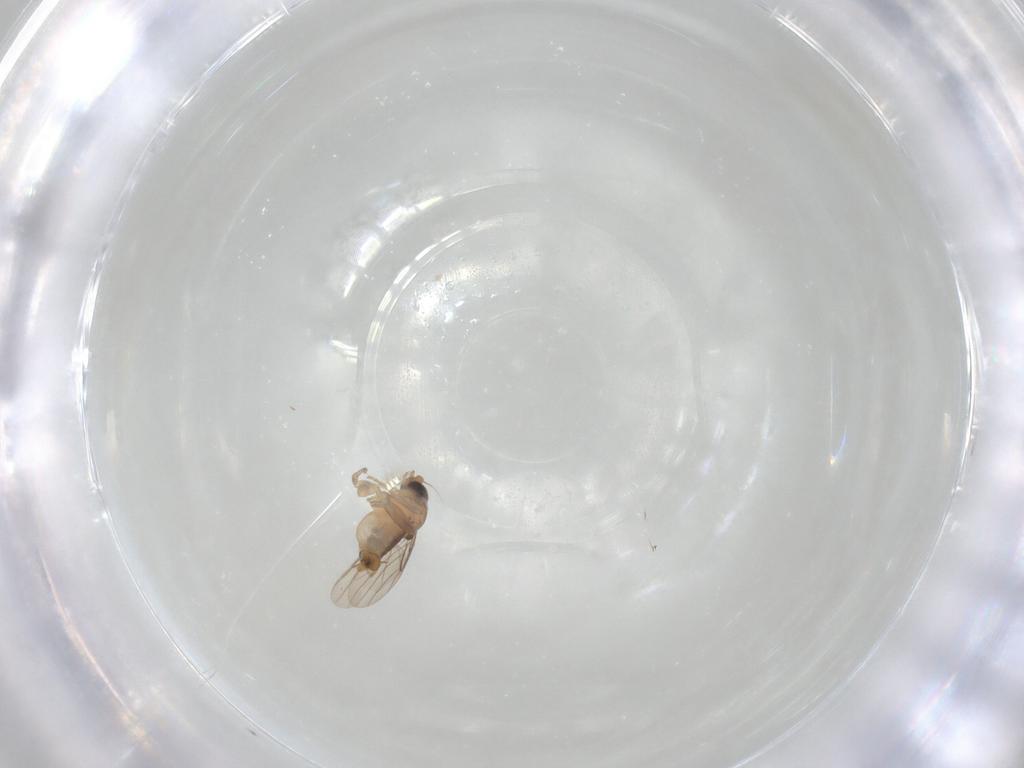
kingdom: Animalia
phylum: Arthropoda
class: Insecta
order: Diptera
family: Phoridae
